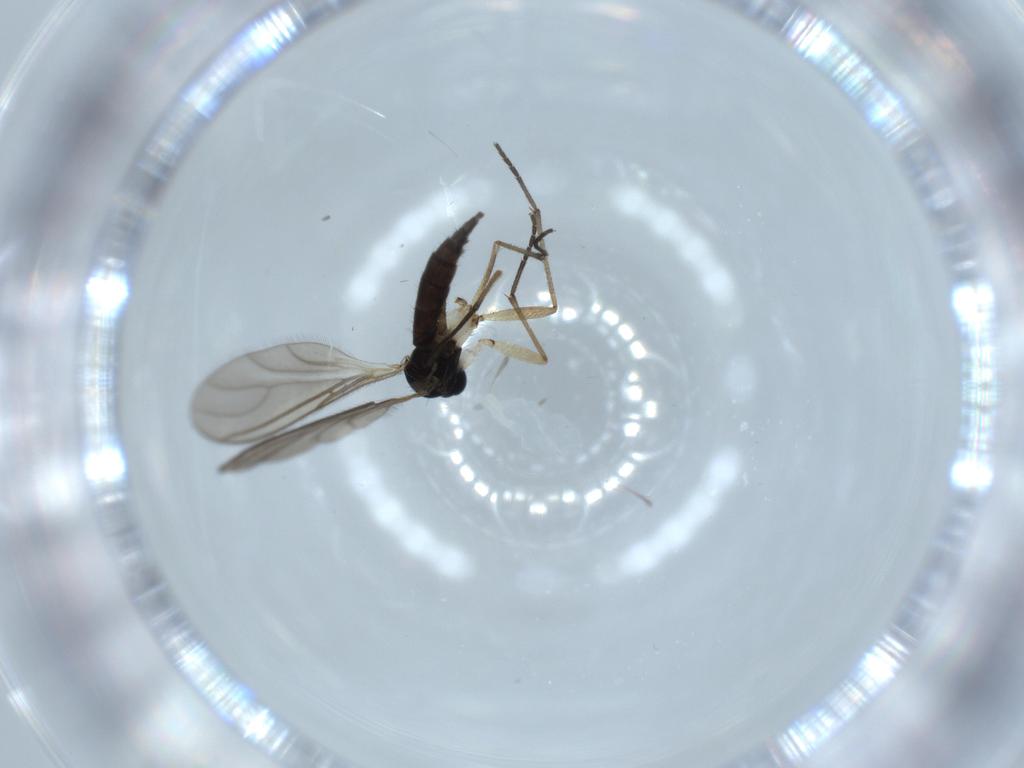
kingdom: Animalia
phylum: Arthropoda
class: Insecta
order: Diptera
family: Sciaridae
